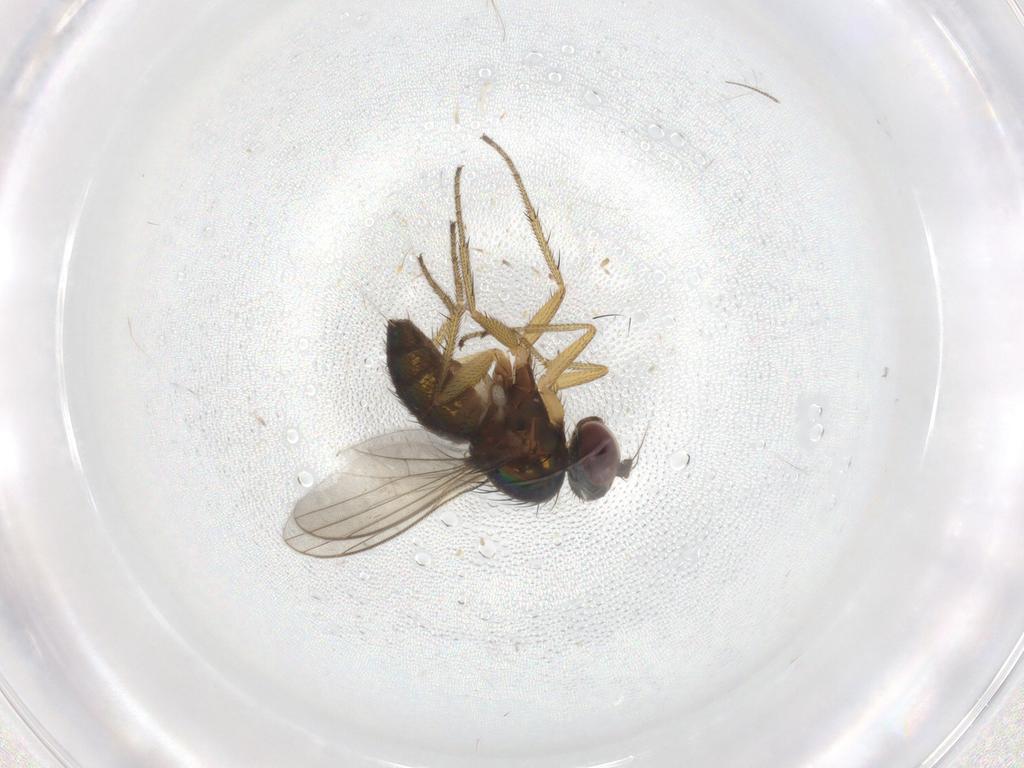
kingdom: Animalia
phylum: Arthropoda
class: Insecta
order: Diptera
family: Dolichopodidae
